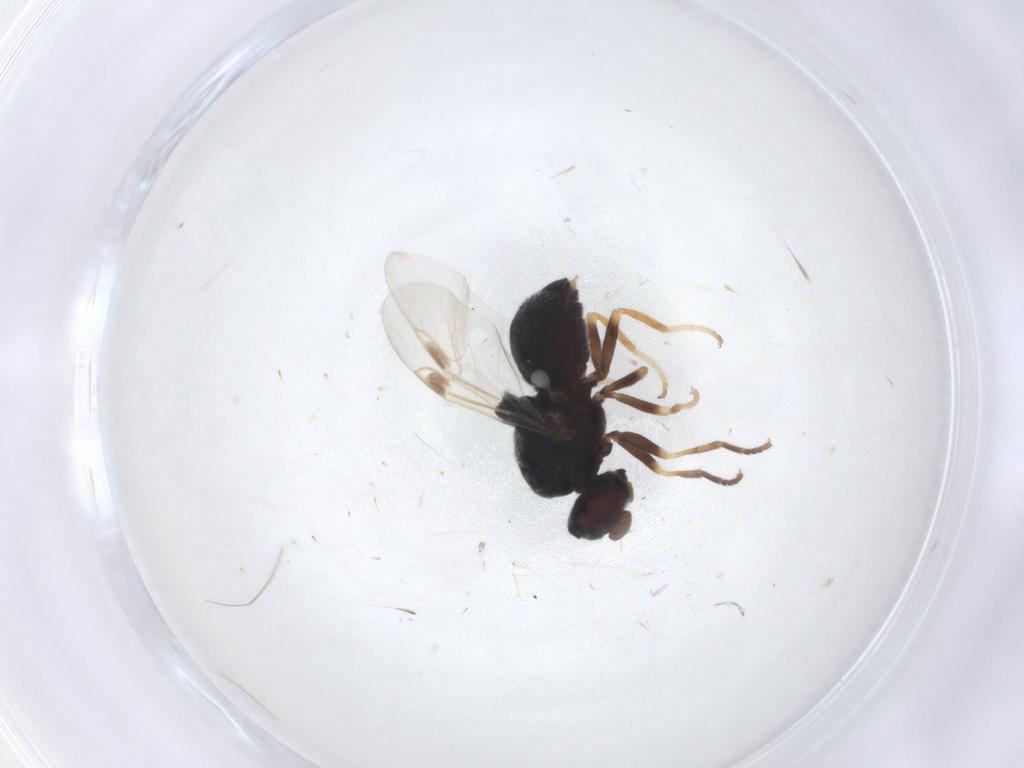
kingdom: Animalia
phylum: Arthropoda
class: Insecta
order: Diptera
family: Stratiomyidae
